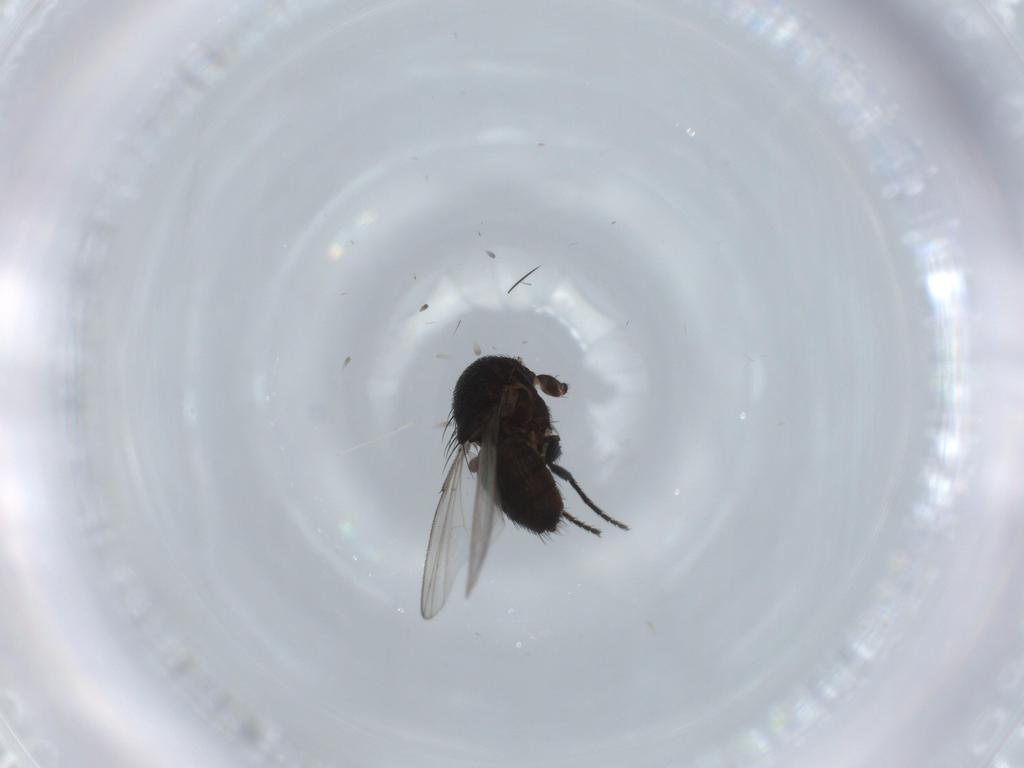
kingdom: Animalia
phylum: Arthropoda
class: Insecta
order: Diptera
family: Milichiidae
